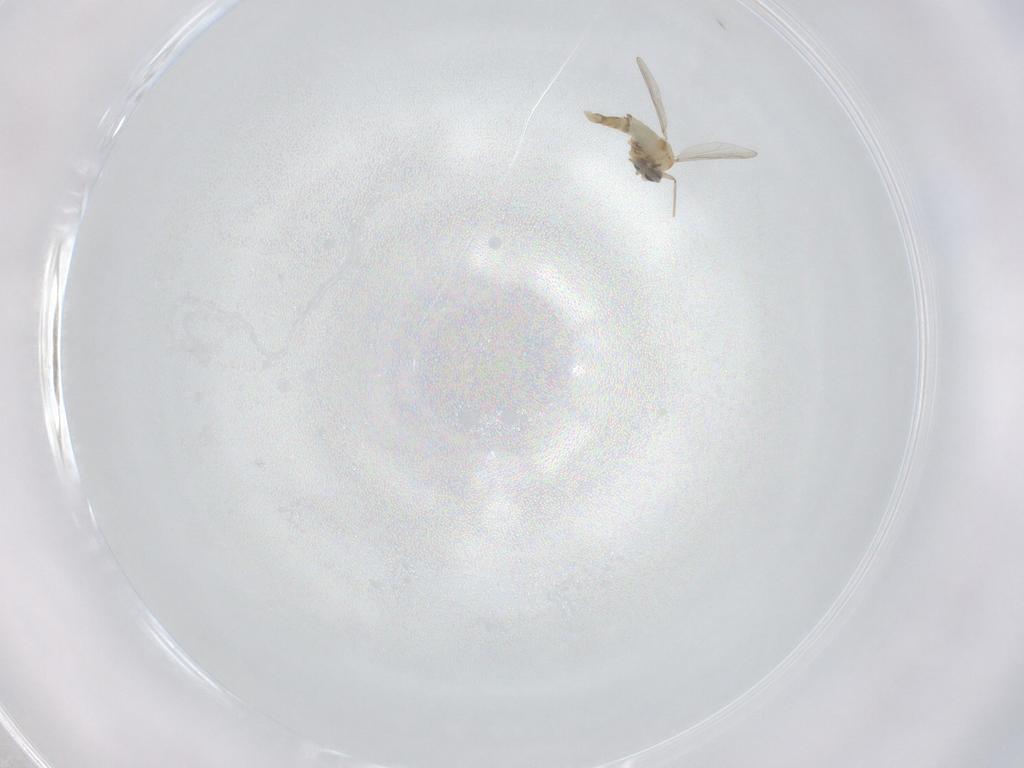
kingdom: Animalia
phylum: Arthropoda
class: Insecta
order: Diptera
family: Chironomidae
